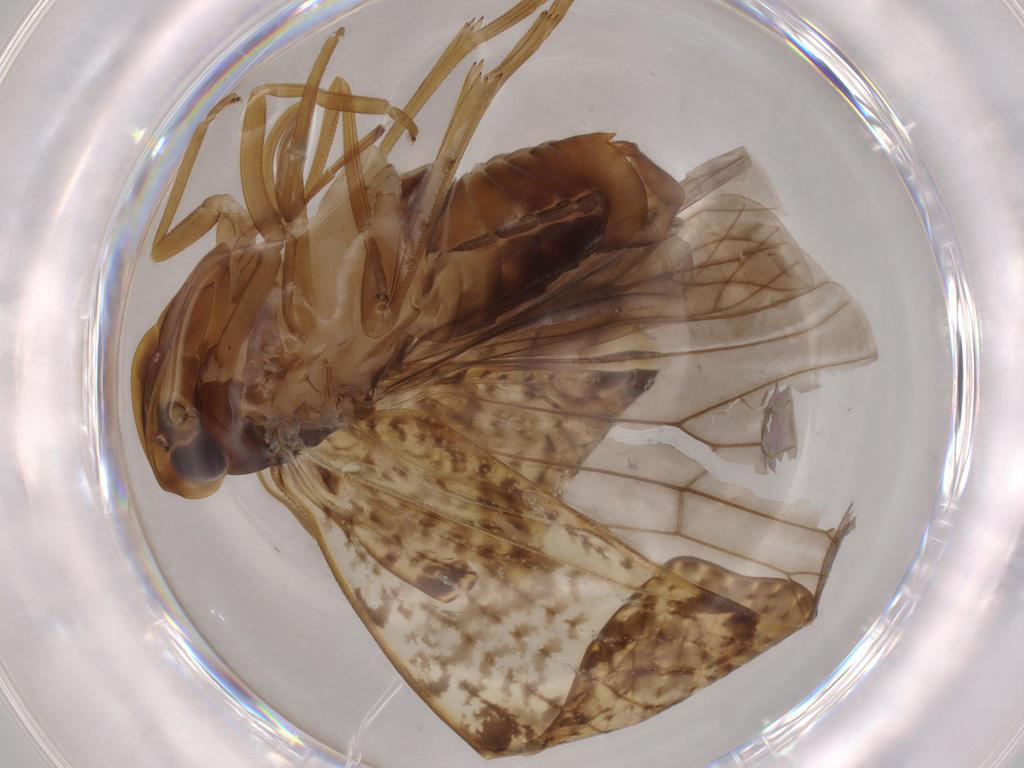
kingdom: Animalia
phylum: Arthropoda
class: Insecta
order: Hemiptera
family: Cixiidae
